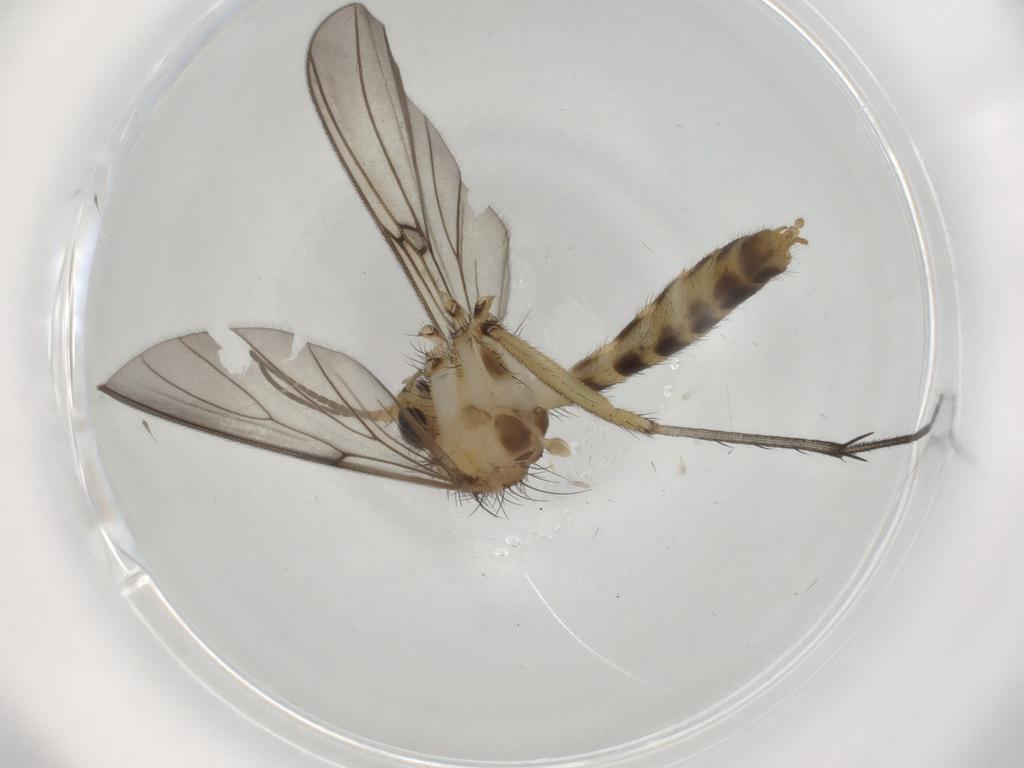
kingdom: Animalia
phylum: Arthropoda
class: Insecta
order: Diptera
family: Mycetophilidae
